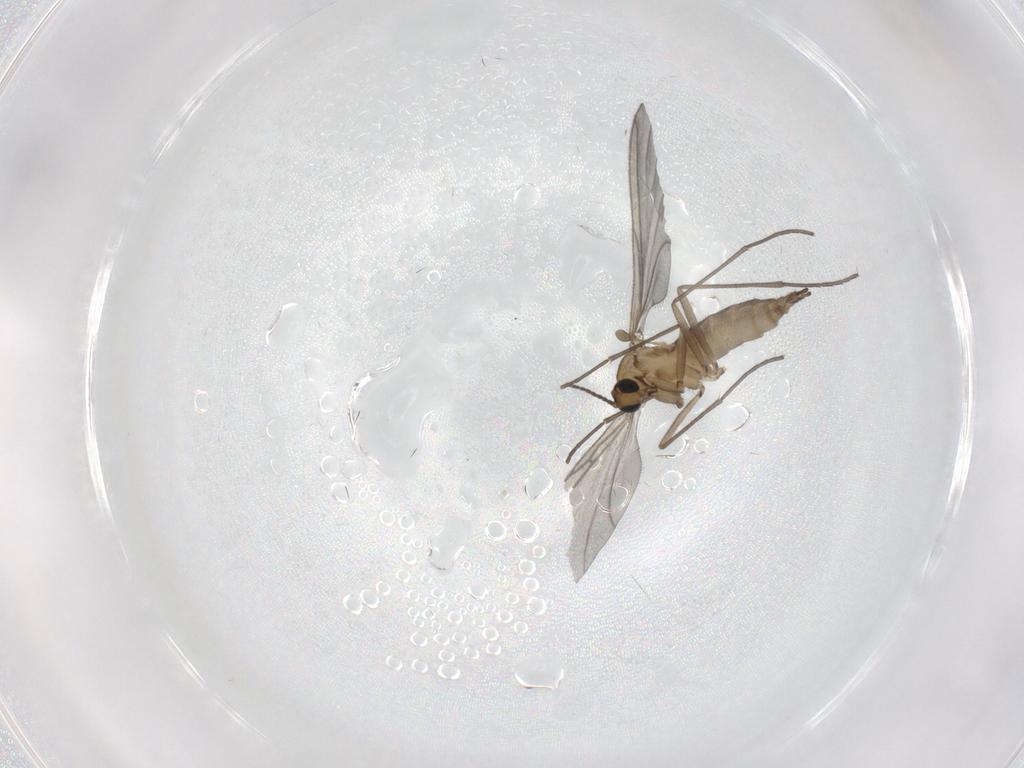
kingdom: Animalia
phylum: Arthropoda
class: Insecta
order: Diptera
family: Sciaridae
